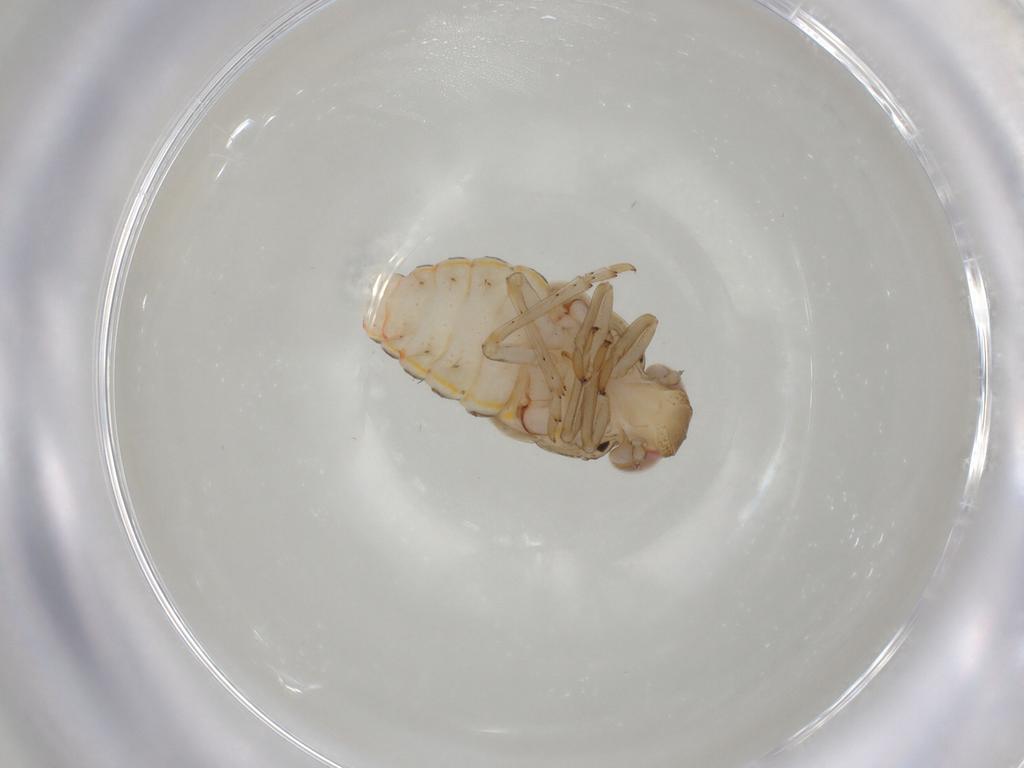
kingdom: Animalia
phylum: Arthropoda
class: Insecta
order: Hemiptera
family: Issidae
